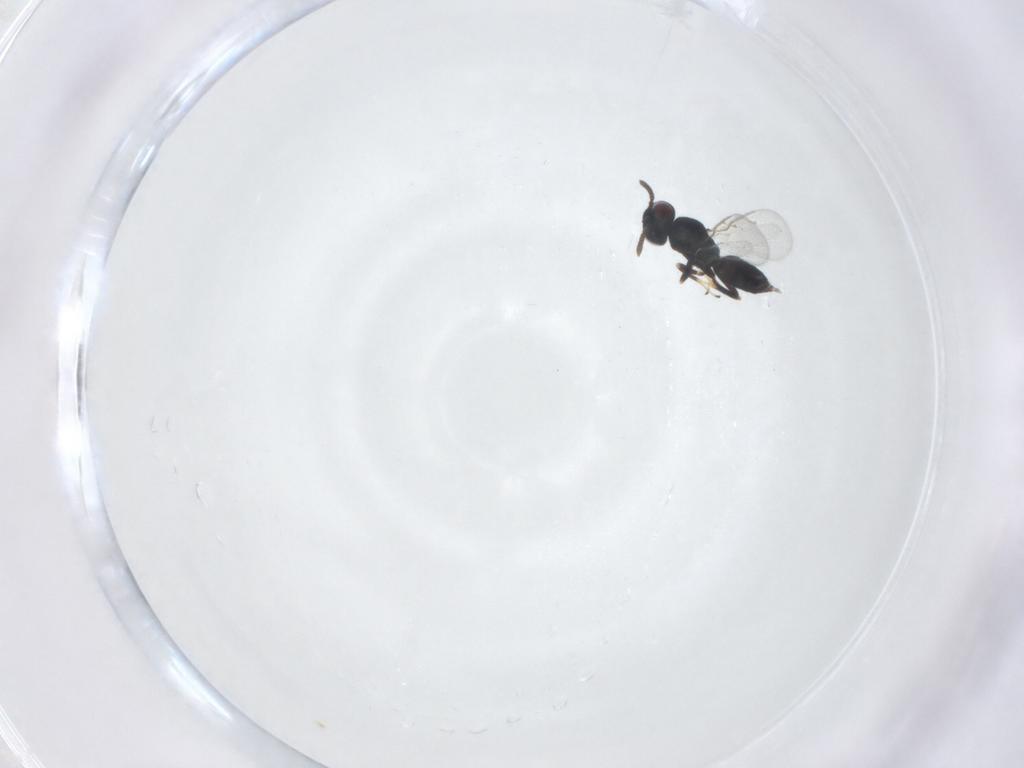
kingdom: Animalia
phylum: Arthropoda
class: Insecta
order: Hymenoptera
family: Pteromalidae
